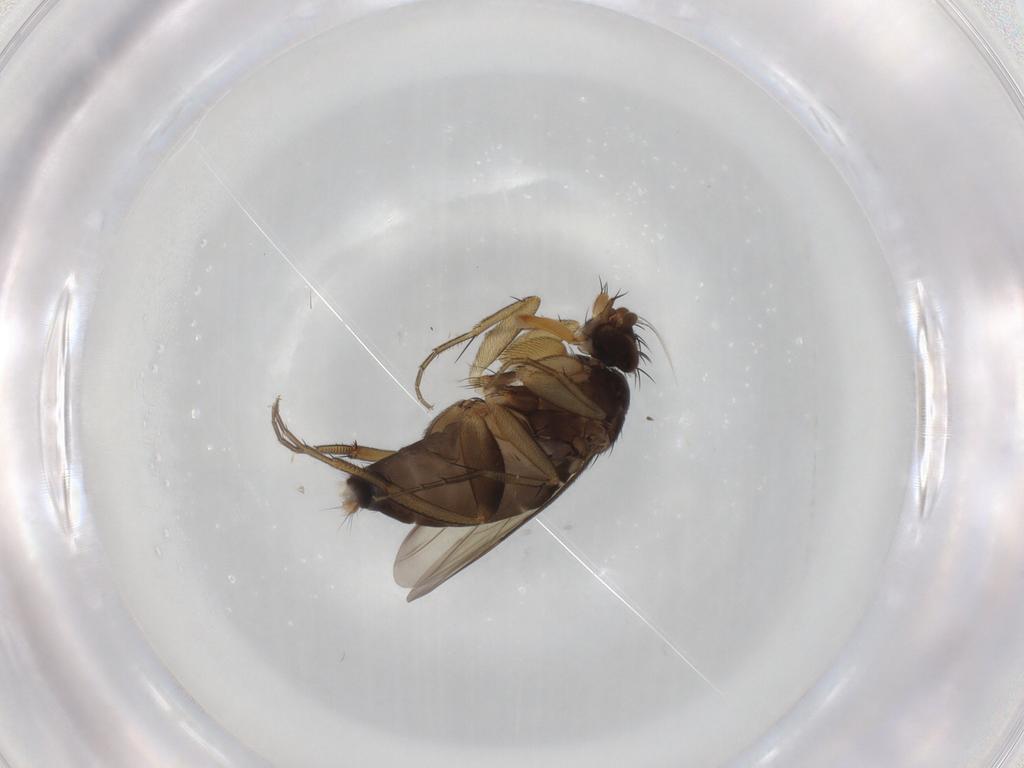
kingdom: Animalia
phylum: Arthropoda
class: Insecta
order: Diptera
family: Phoridae
